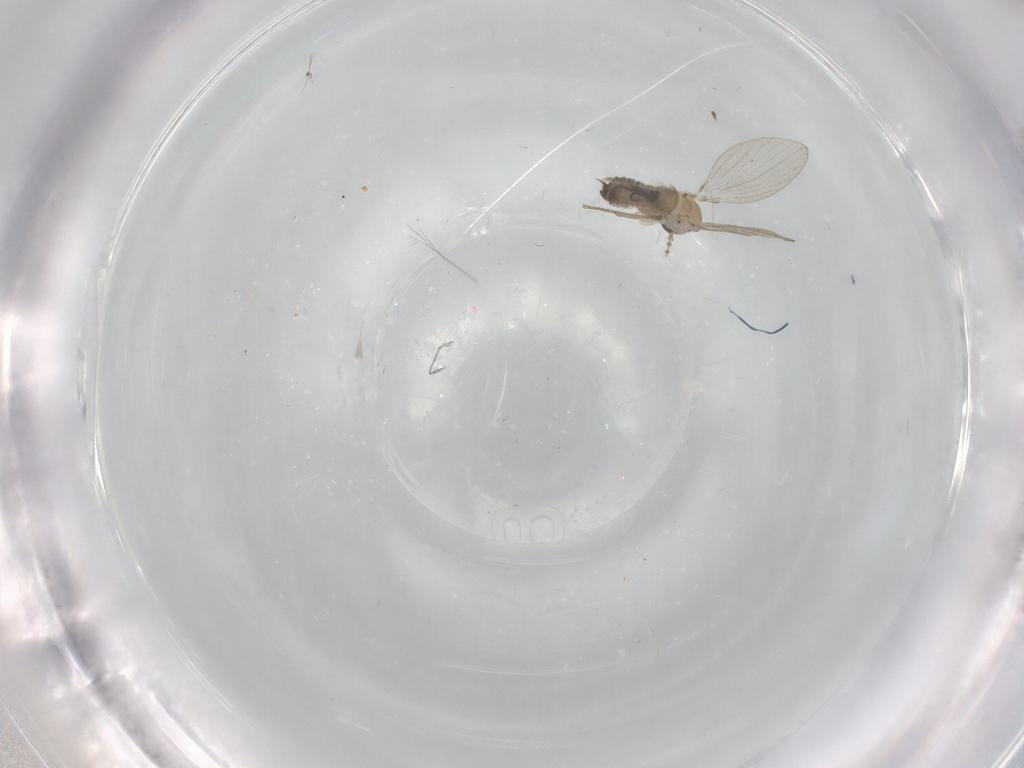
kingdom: Animalia
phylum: Arthropoda
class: Insecta
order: Diptera
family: Psychodidae
